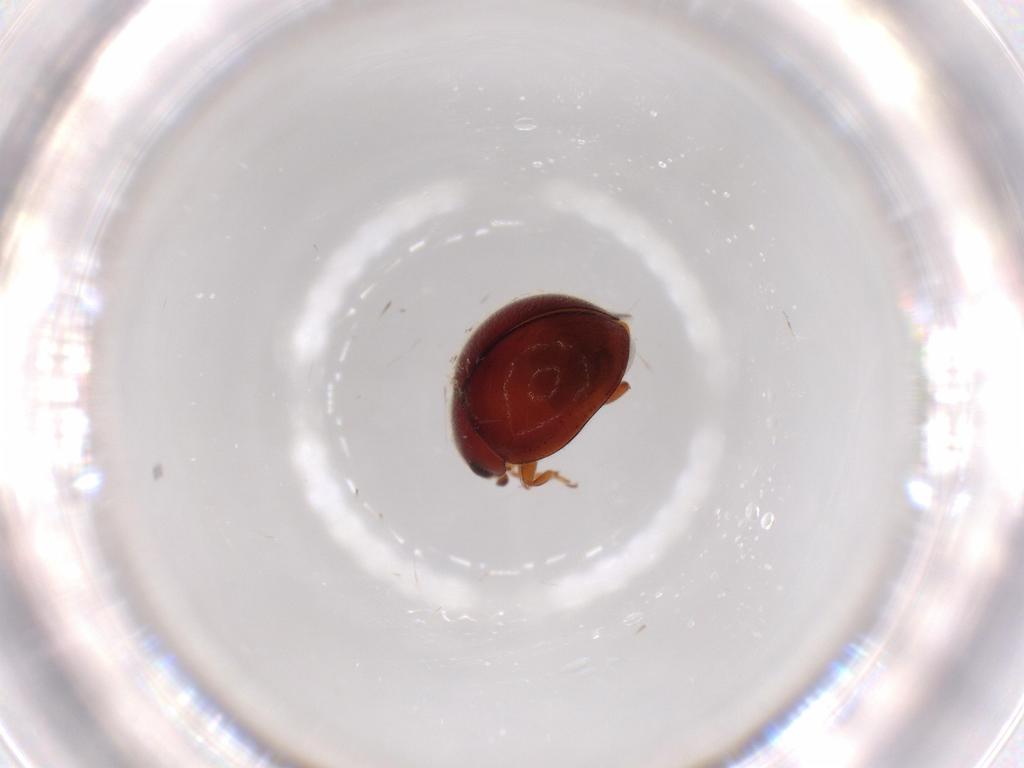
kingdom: Animalia
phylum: Arthropoda
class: Insecta
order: Coleoptera
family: Coccinellidae
